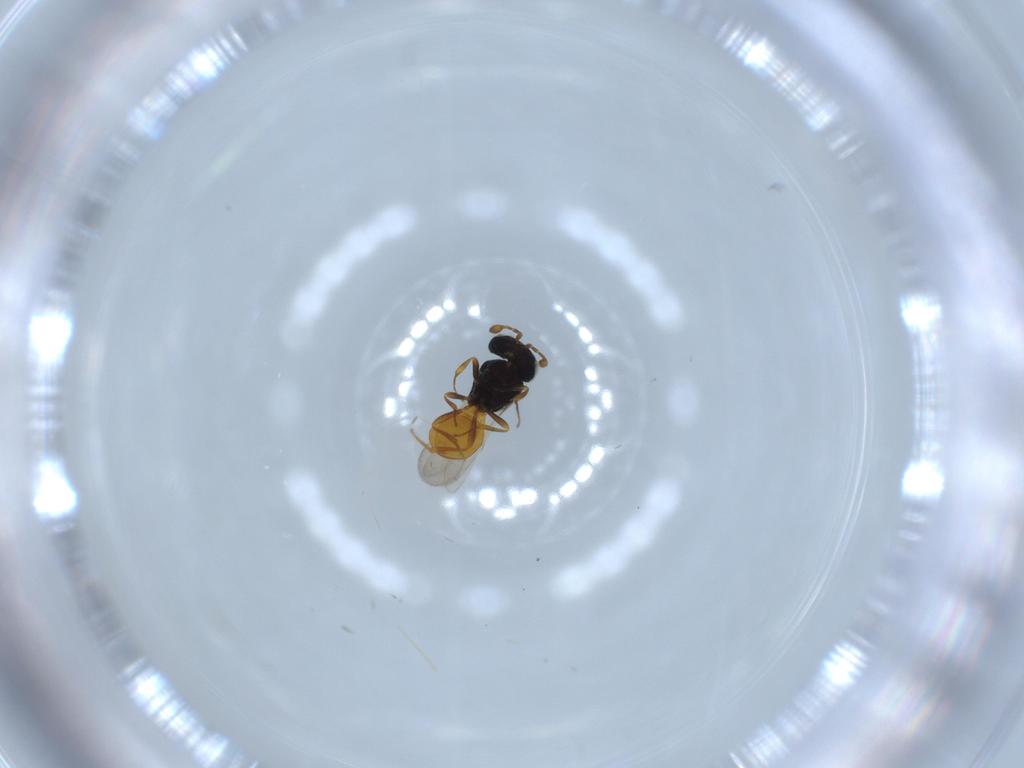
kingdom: Animalia
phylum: Arthropoda
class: Insecta
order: Hymenoptera
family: Scelionidae
